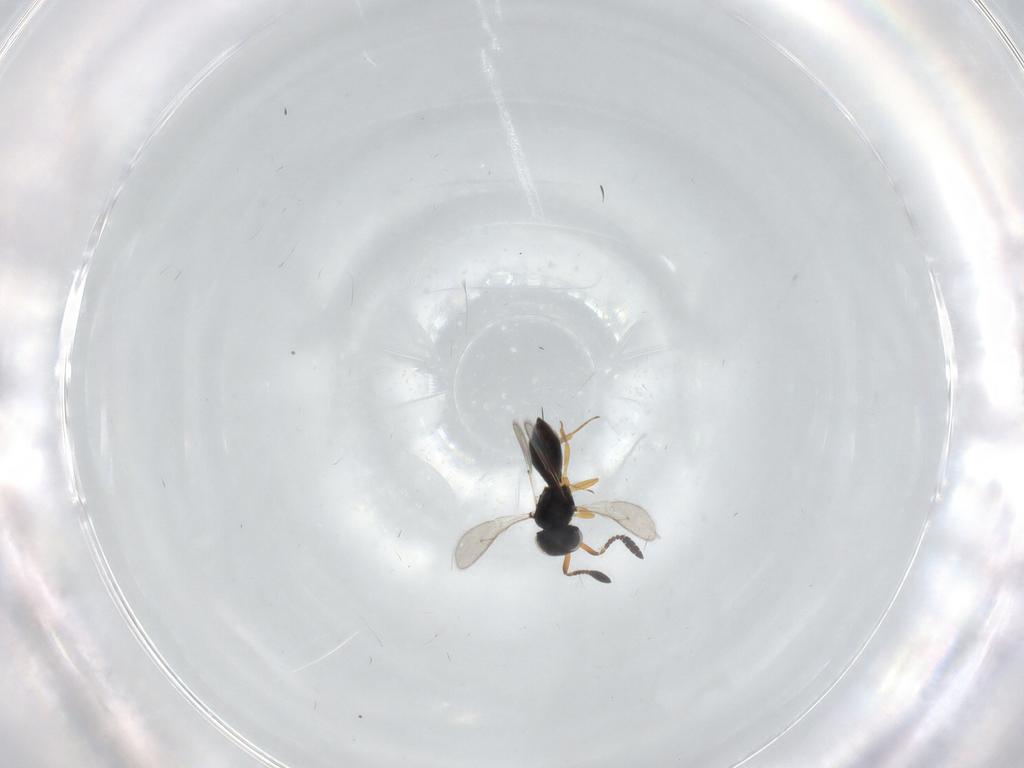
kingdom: Animalia
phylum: Arthropoda
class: Insecta
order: Hymenoptera
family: Scelionidae
